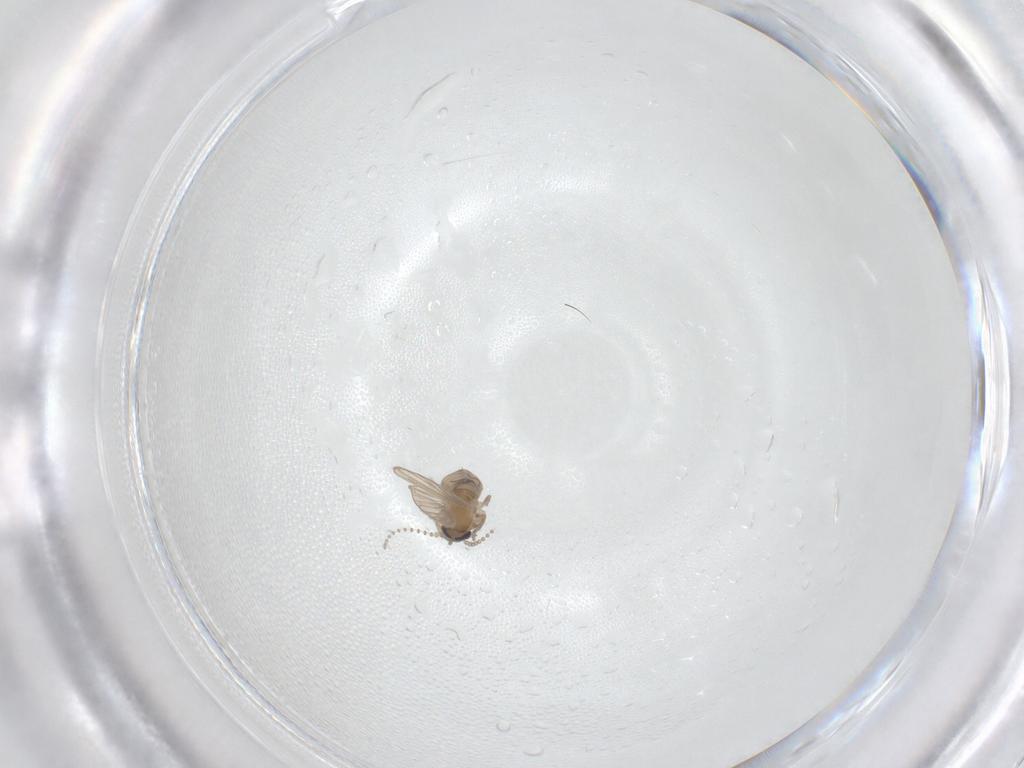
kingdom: Animalia
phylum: Arthropoda
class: Insecta
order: Diptera
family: Psychodidae
